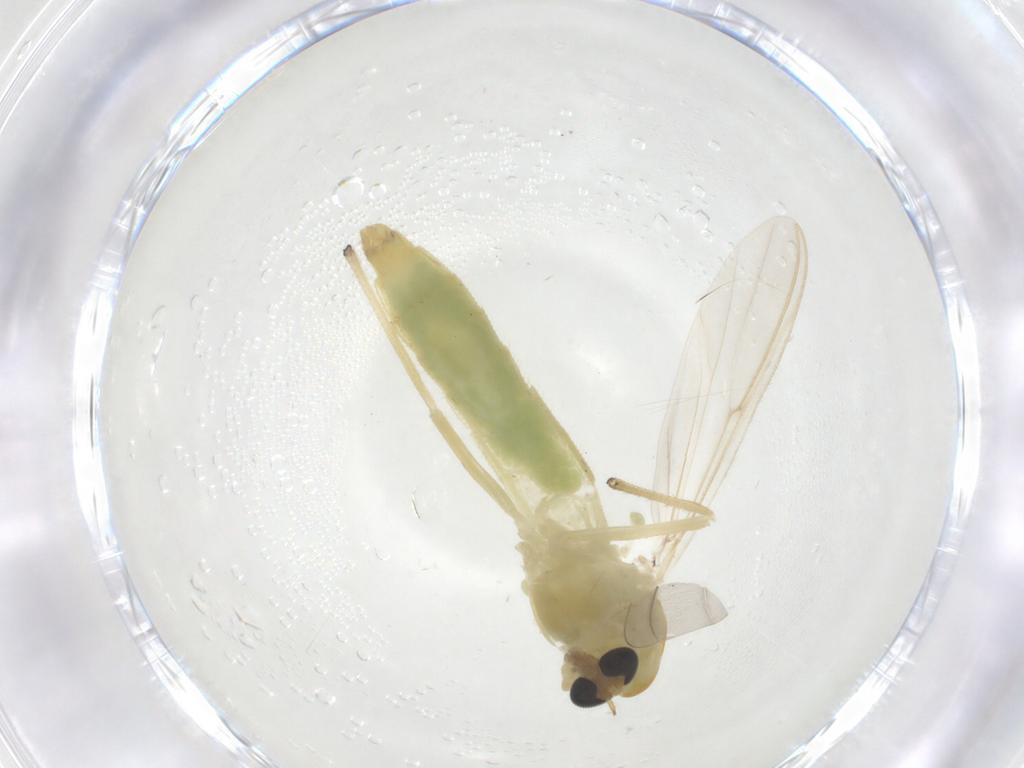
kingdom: Animalia
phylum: Arthropoda
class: Insecta
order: Diptera
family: Chironomidae
